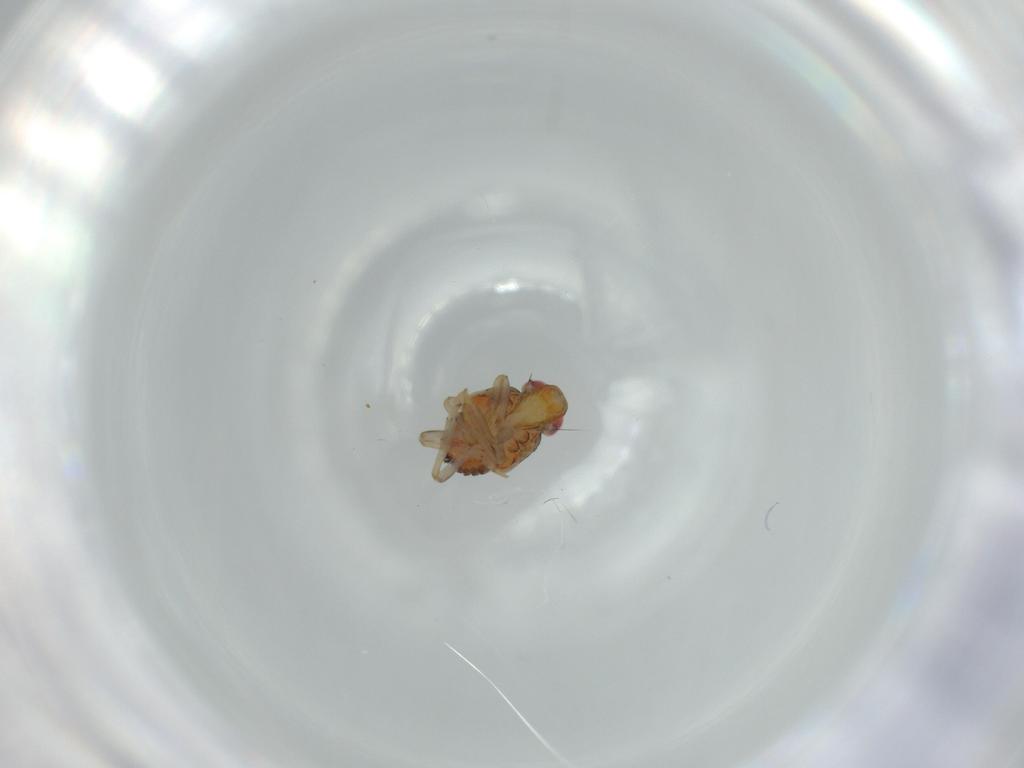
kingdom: Animalia
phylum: Arthropoda
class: Insecta
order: Hemiptera
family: Issidae
